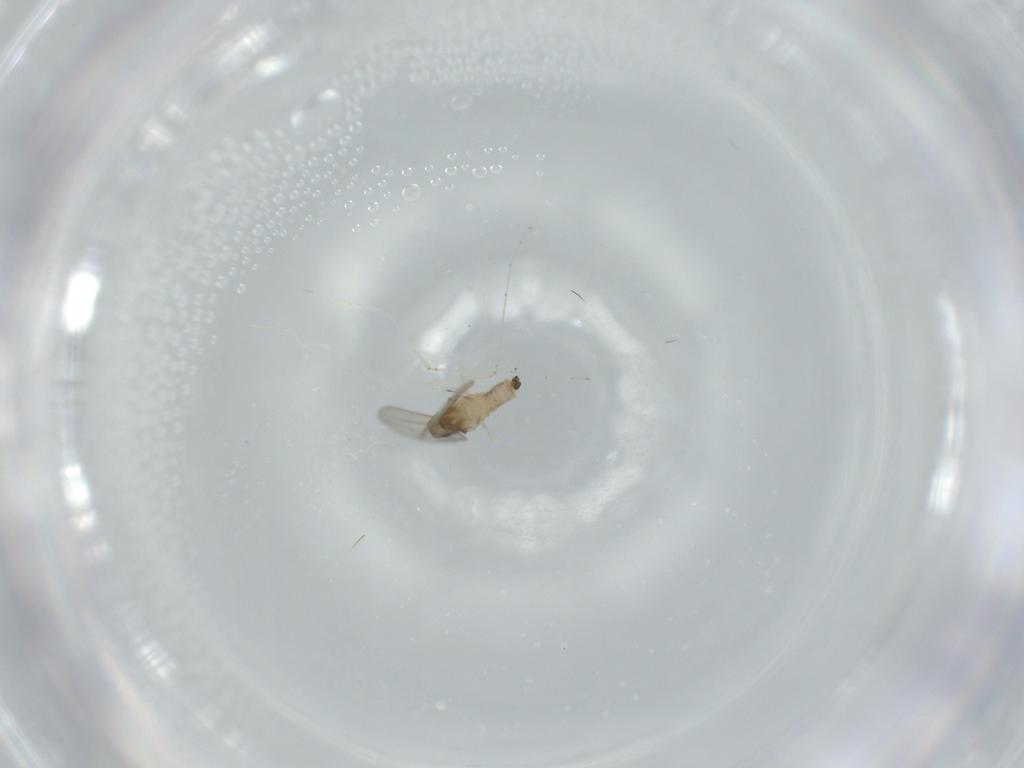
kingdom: Animalia
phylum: Arthropoda
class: Insecta
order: Diptera
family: Cecidomyiidae
